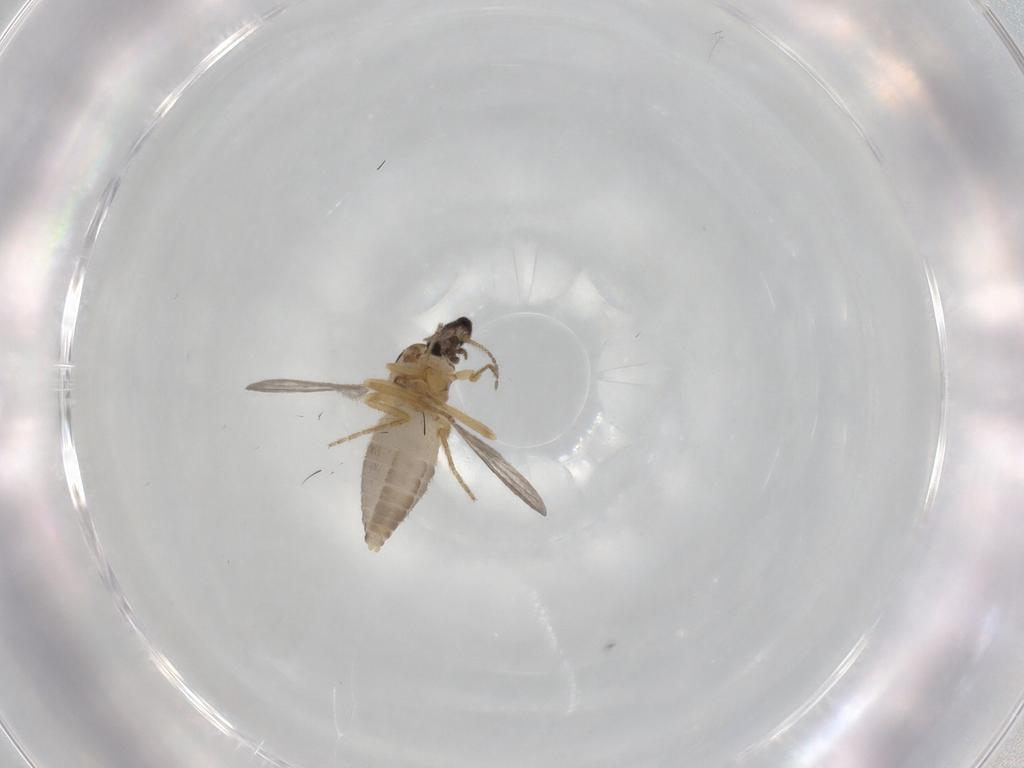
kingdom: Animalia
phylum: Arthropoda
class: Insecta
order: Diptera
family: Ceratopogonidae
